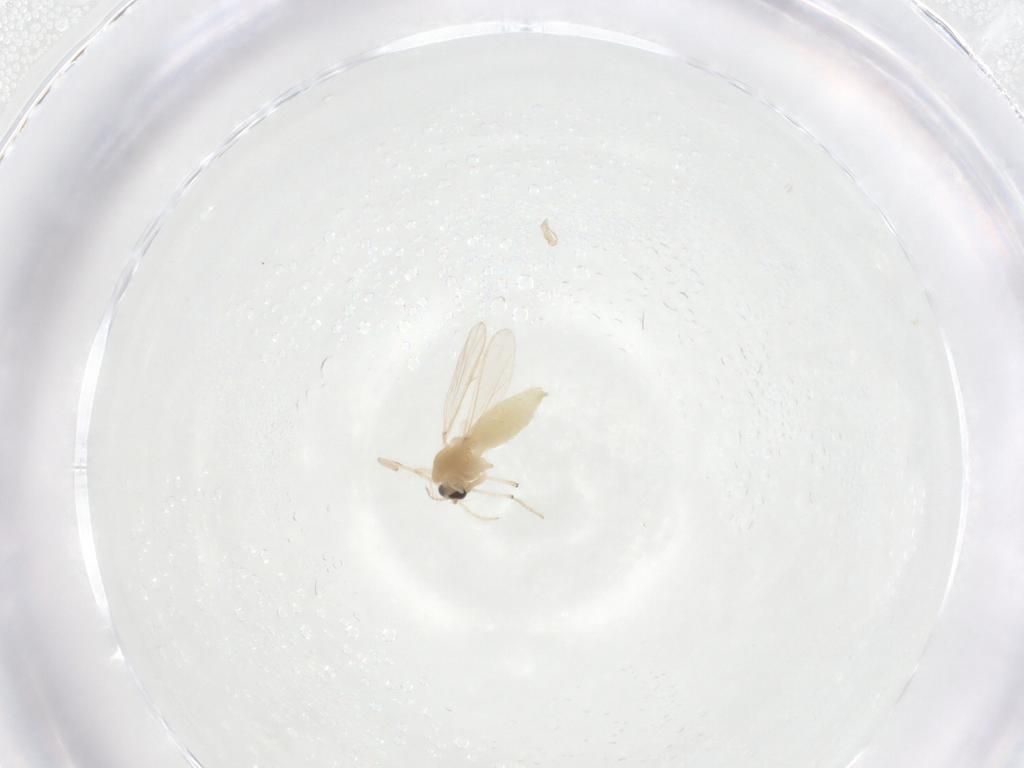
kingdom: Animalia
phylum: Arthropoda
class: Insecta
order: Diptera
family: Chironomidae
